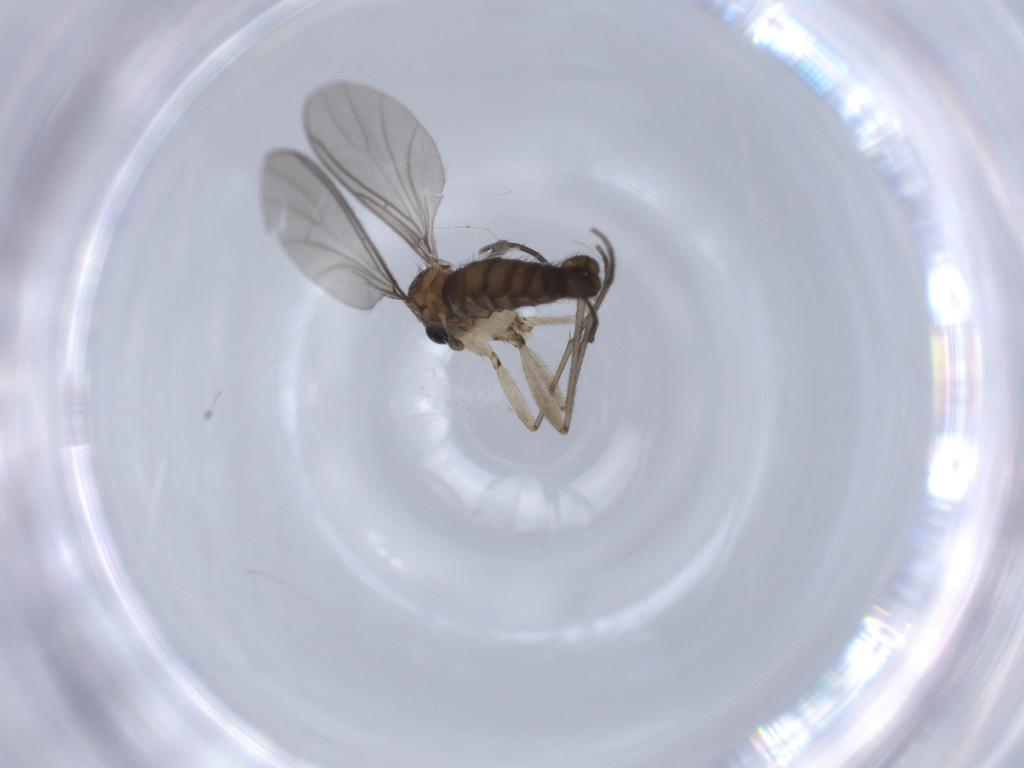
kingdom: Animalia
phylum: Arthropoda
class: Insecta
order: Diptera
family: Sciaridae
